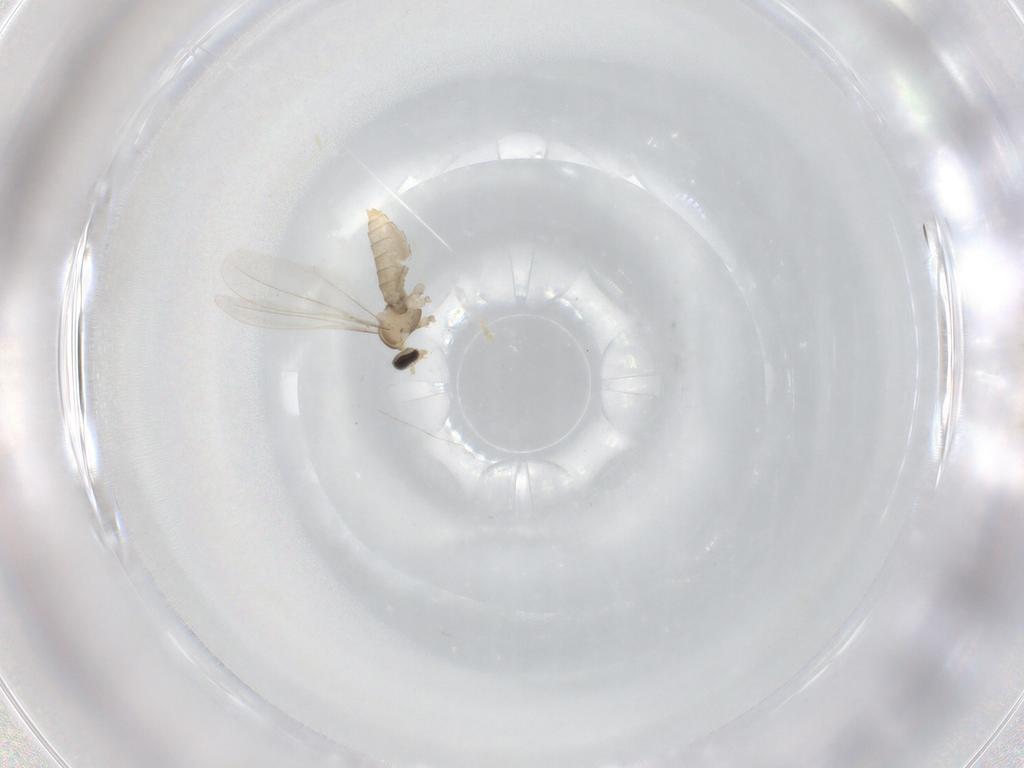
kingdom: Animalia
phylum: Arthropoda
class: Insecta
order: Diptera
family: Cecidomyiidae
